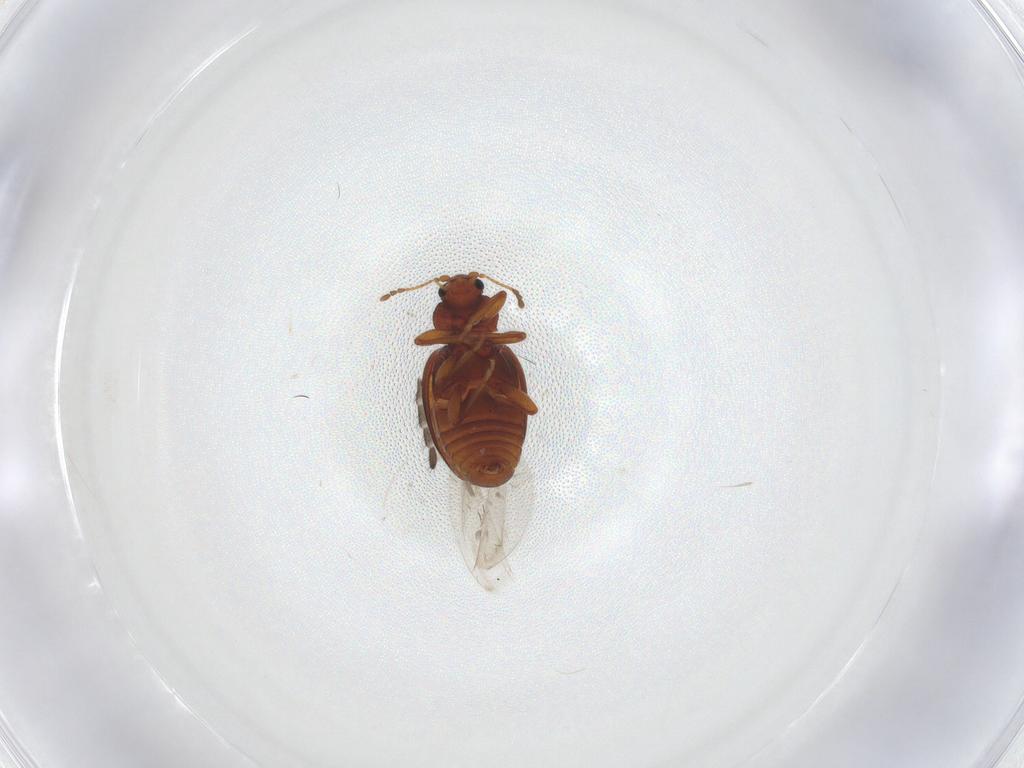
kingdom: Animalia
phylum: Arthropoda
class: Insecta
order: Coleoptera
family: Latridiidae
